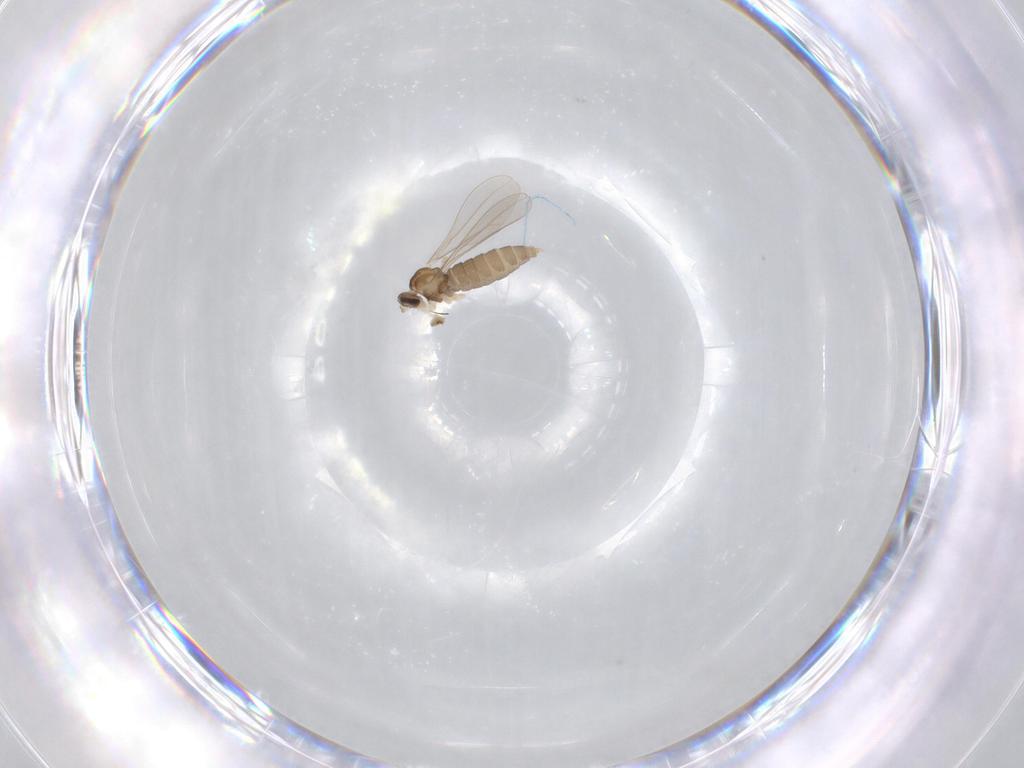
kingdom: Animalia
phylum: Arthropoda
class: Insecta
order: Diptera
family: Cecidomyiidae
